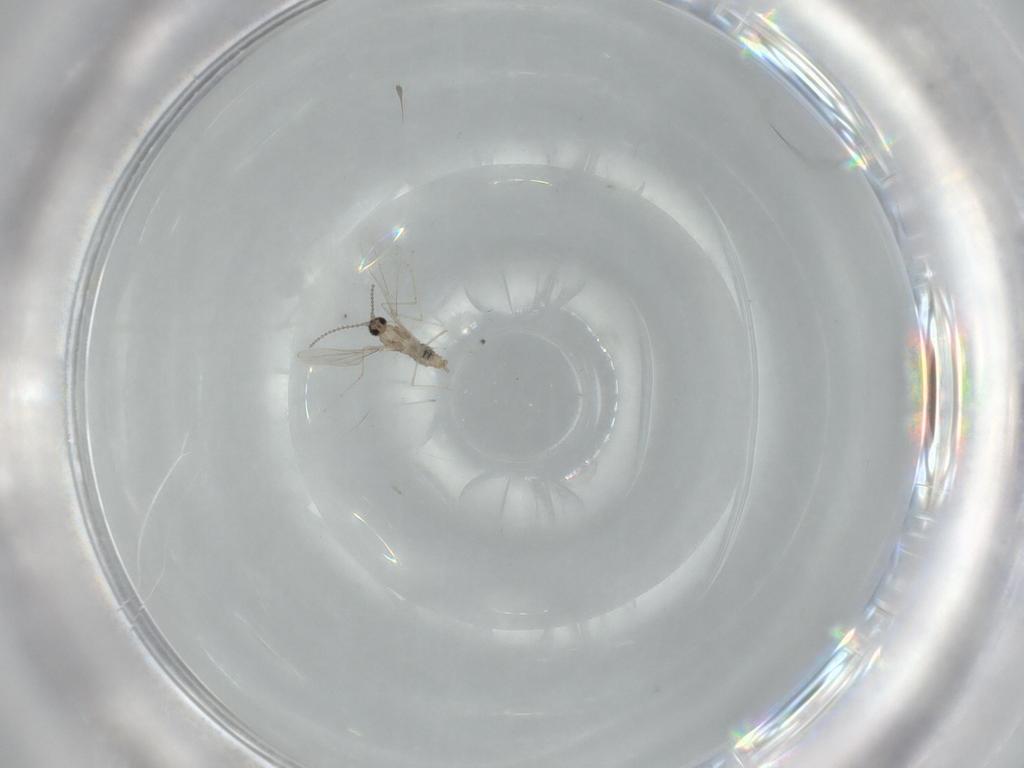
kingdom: Animalia
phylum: Arthropoda
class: Insecta
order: Diptera
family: Cecidomyiidae
